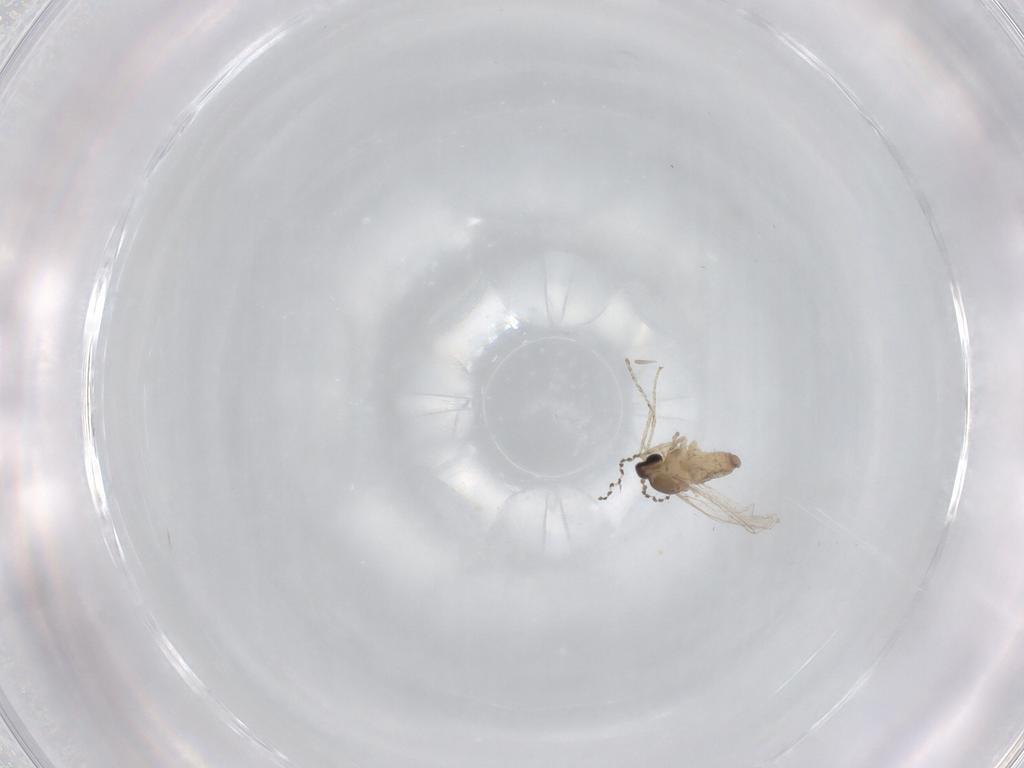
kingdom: Animalia
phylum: Arthropoda
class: Insecta
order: Diptera
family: Cecidomyiidae
